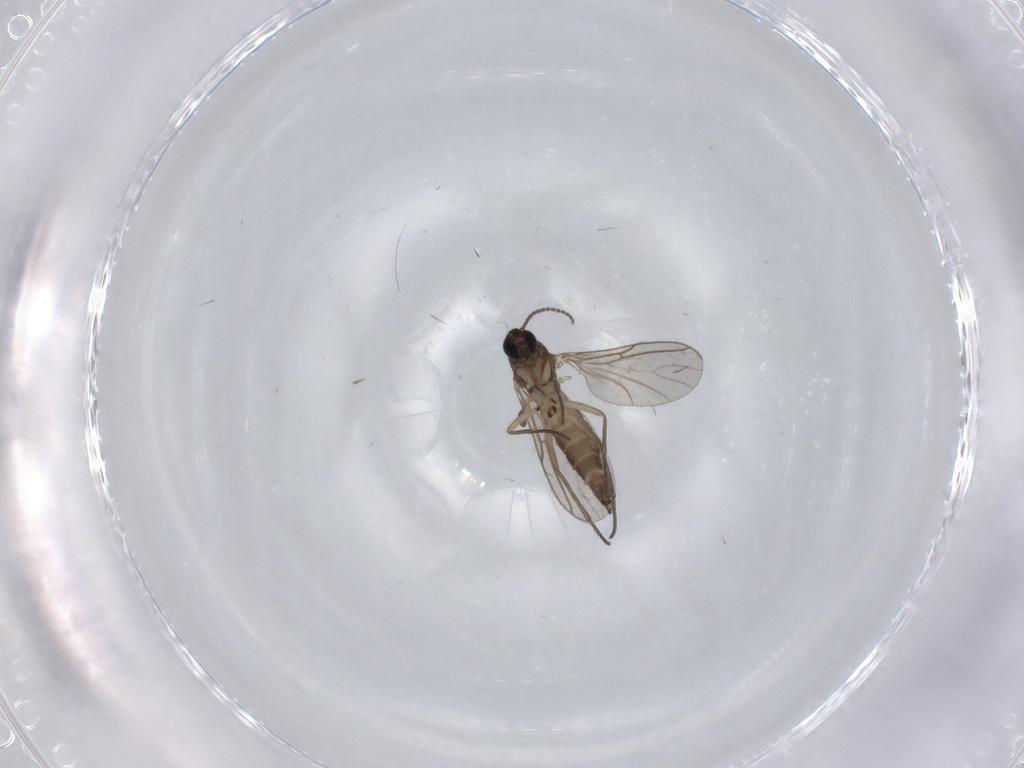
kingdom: Animalia
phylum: Arthropoda
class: Insecta
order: Diptera
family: Sciaridae
